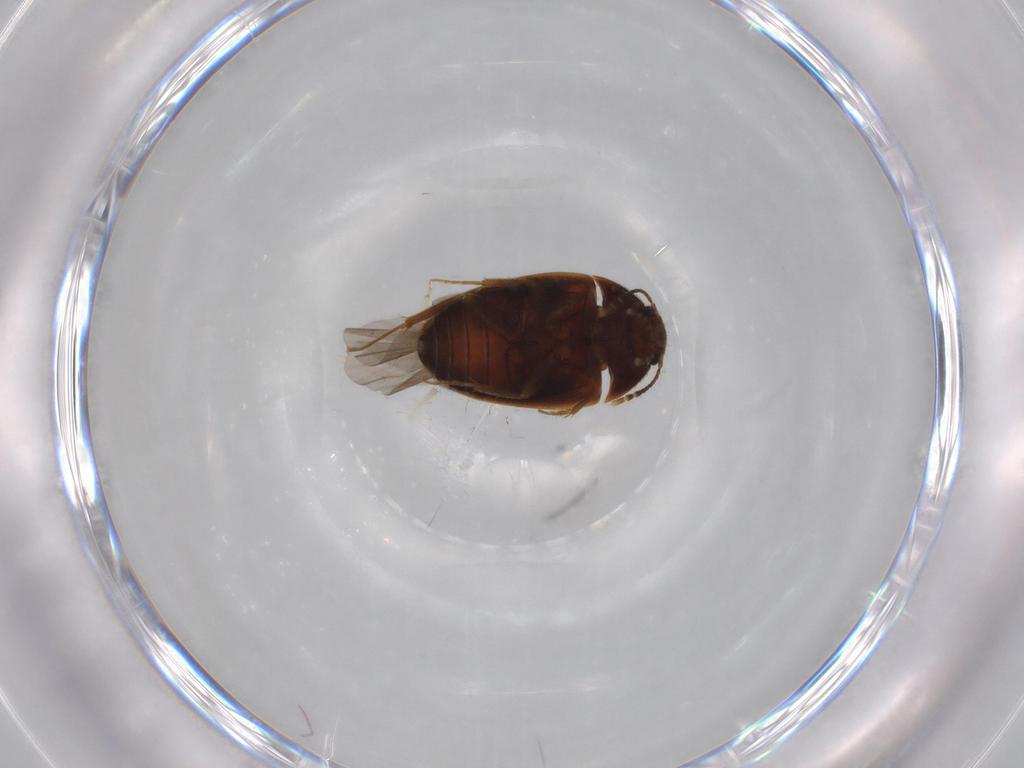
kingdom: Animalia
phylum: Arthropoda
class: Insecta
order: Coleoptera
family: Mycetophagidae
